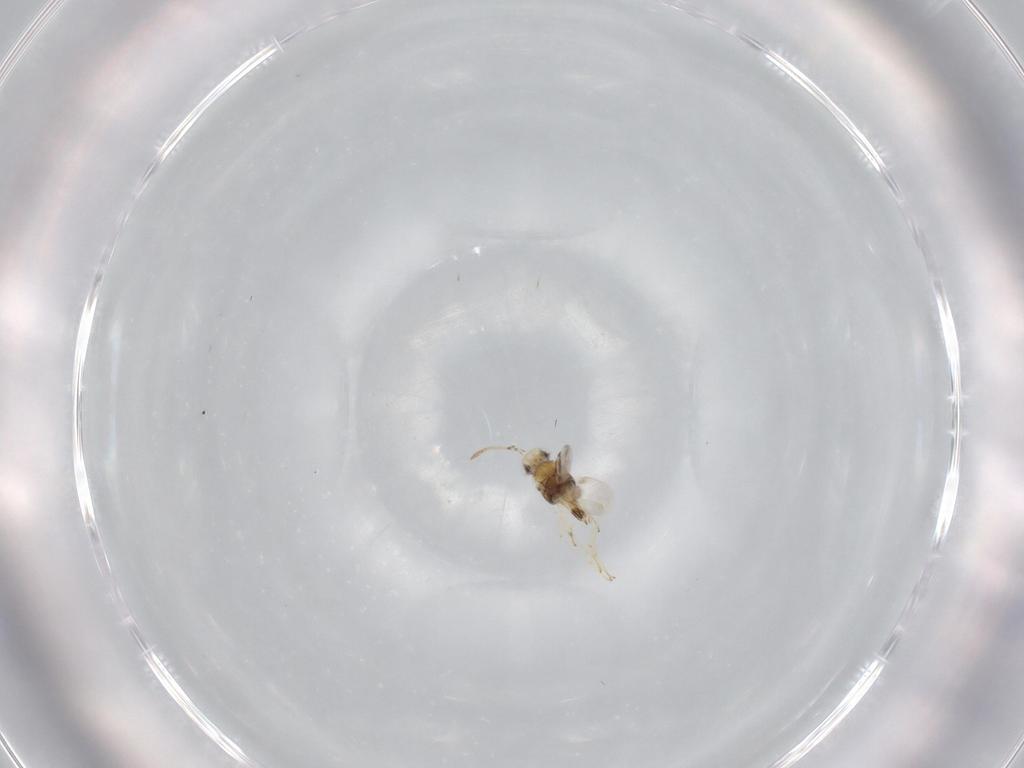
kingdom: Animalia
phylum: Arthropoda
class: Insecta
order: Hymenoptera
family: Encyrtidae
